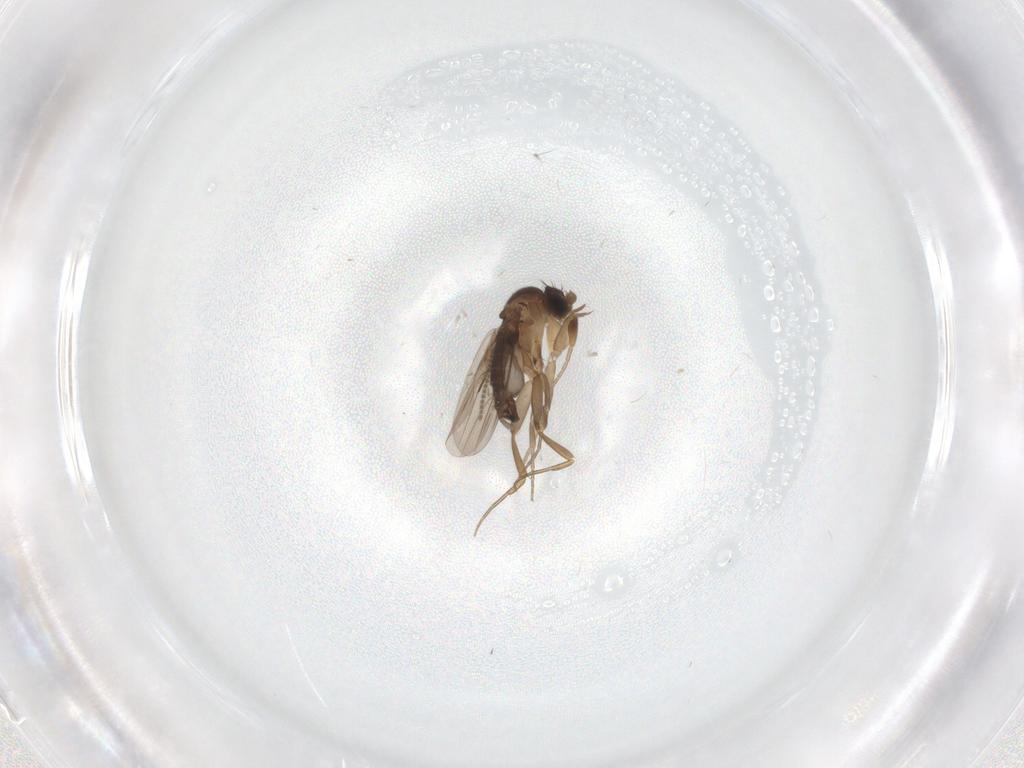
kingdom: Animalia
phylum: Arthropoda
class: Insecta
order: Diptera
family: Phoridae
